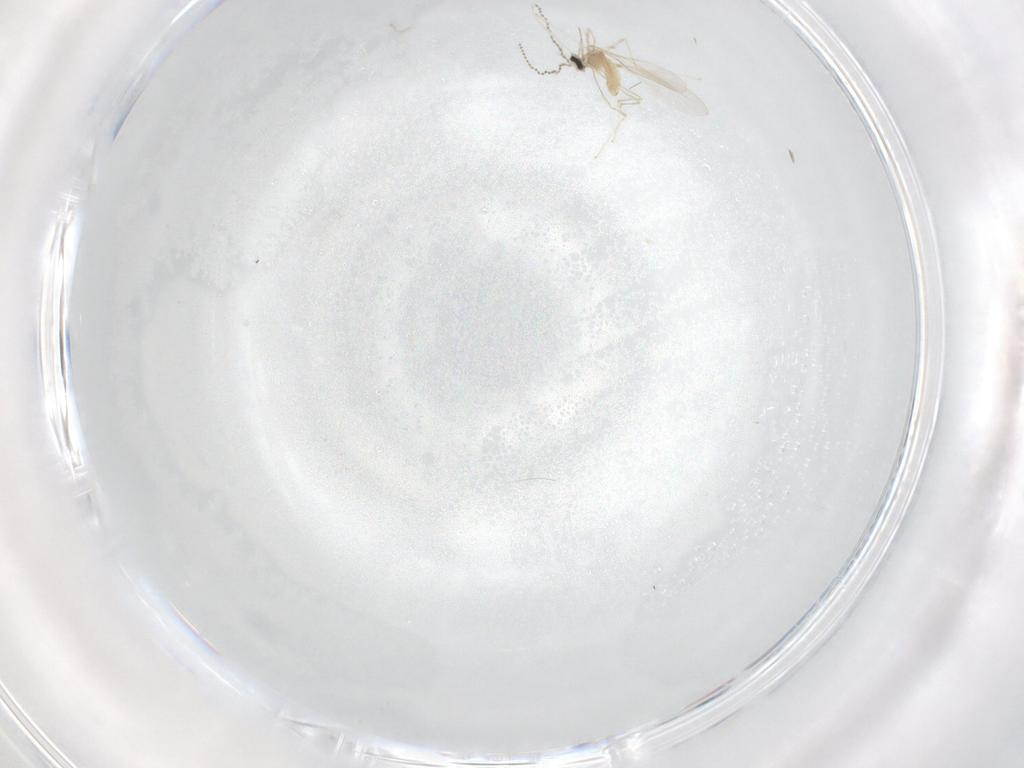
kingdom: Animalia
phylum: Arthropoda
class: Insecta
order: Diptera
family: Cecidomyiidae
